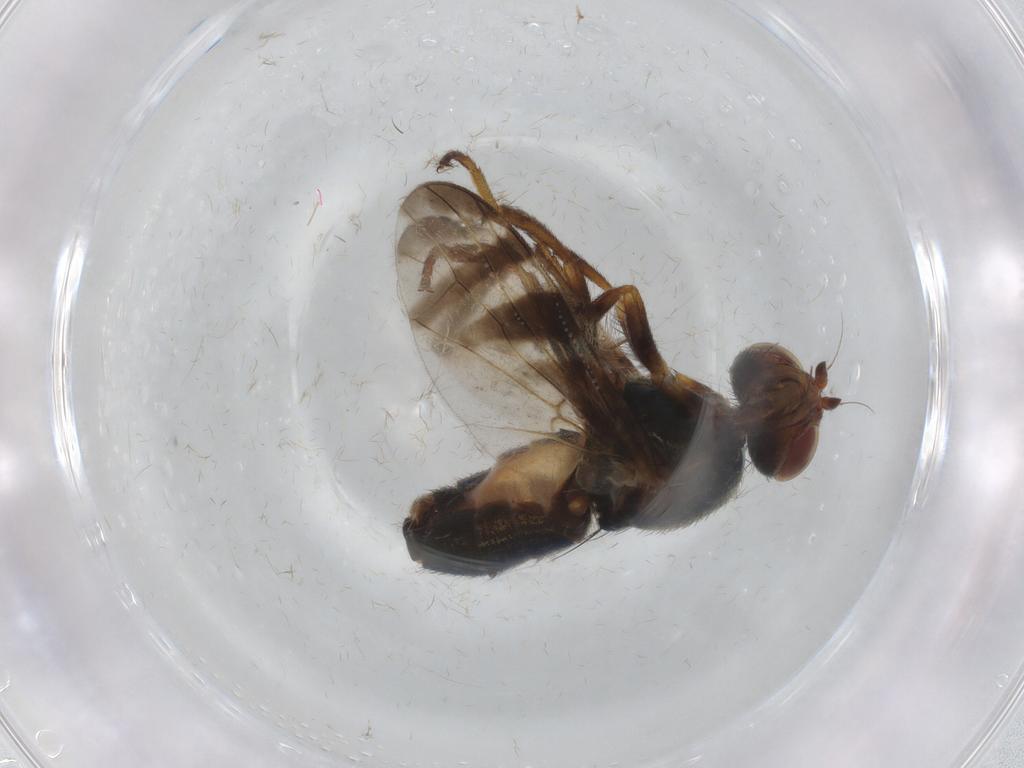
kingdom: Animalia
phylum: Arthropoda
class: Insecta
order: Diptera
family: Platystomatidae
